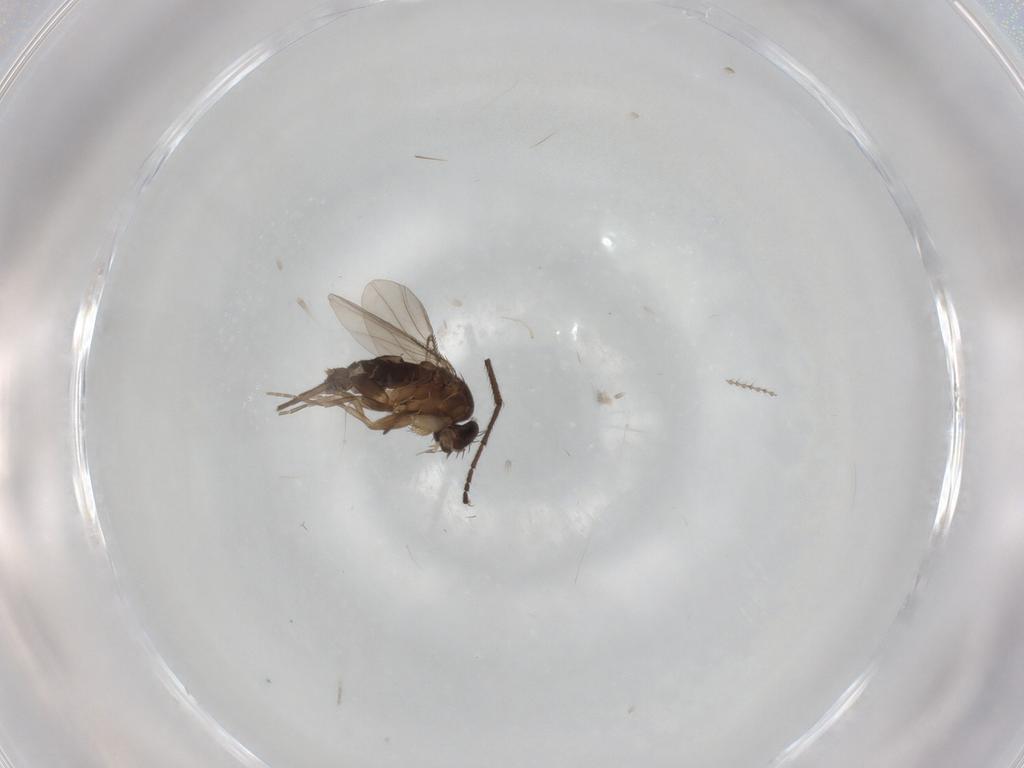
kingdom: Animalia
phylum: Arthropoda
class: Insecta
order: Diptera
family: Phoridae
